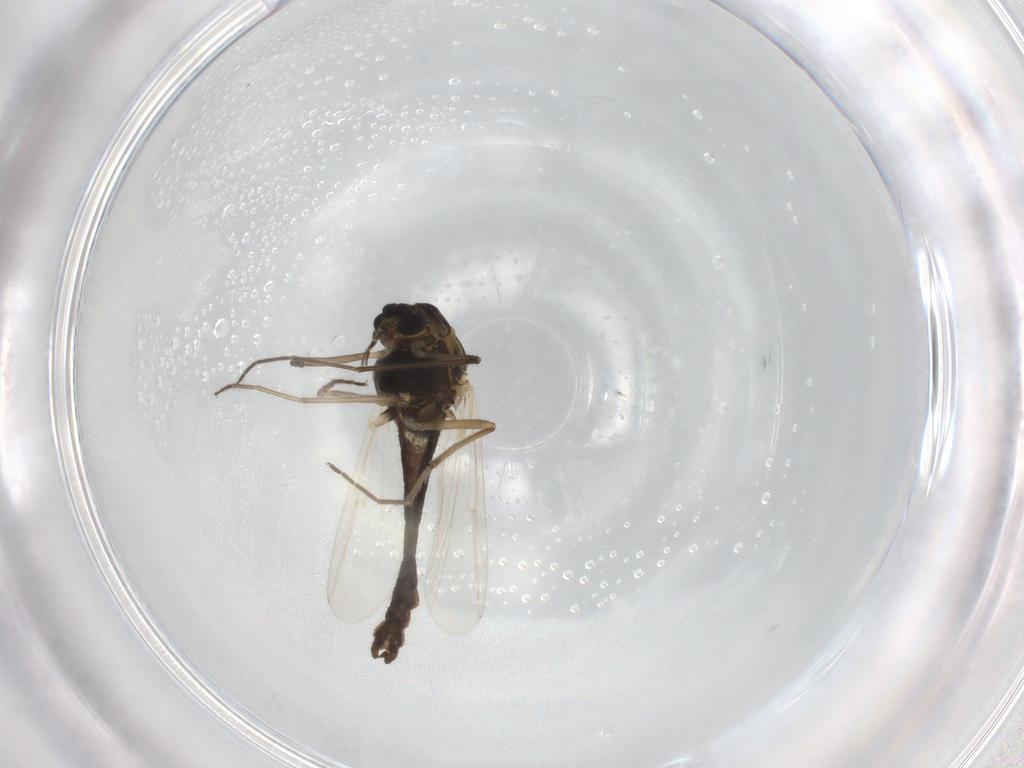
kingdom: Animalia
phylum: Arthropoda
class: Insecta
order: Diptera
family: Chironomidae
